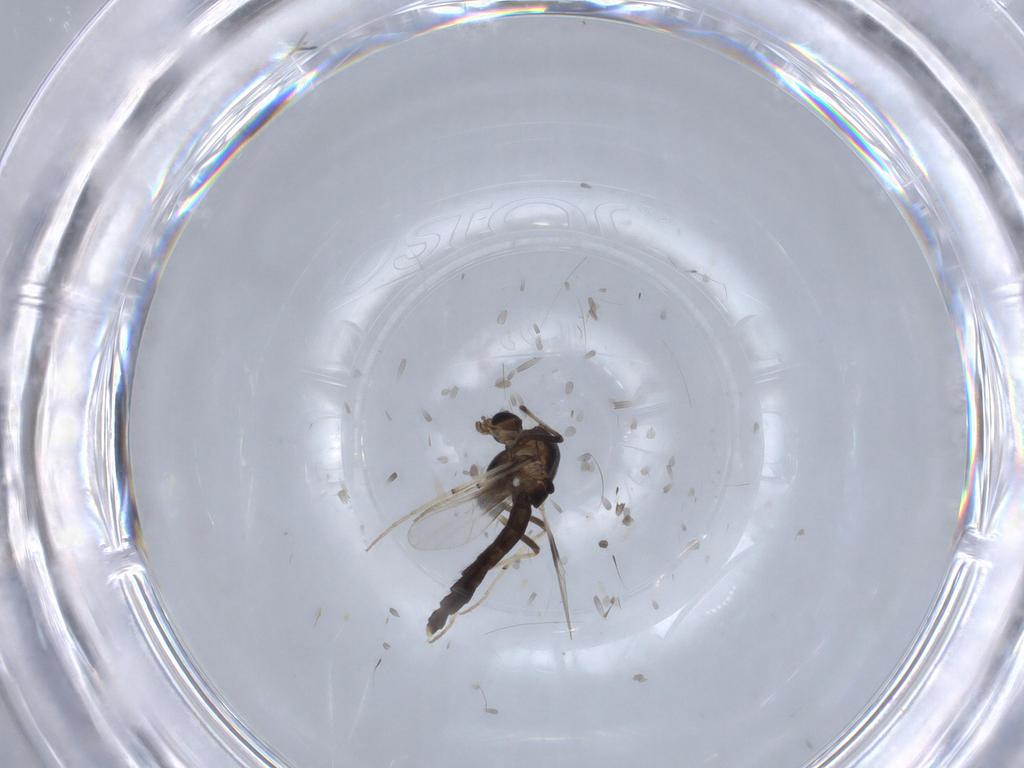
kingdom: Animalia
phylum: Arthropoda
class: Insecta
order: Diptera
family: Chironomidae
